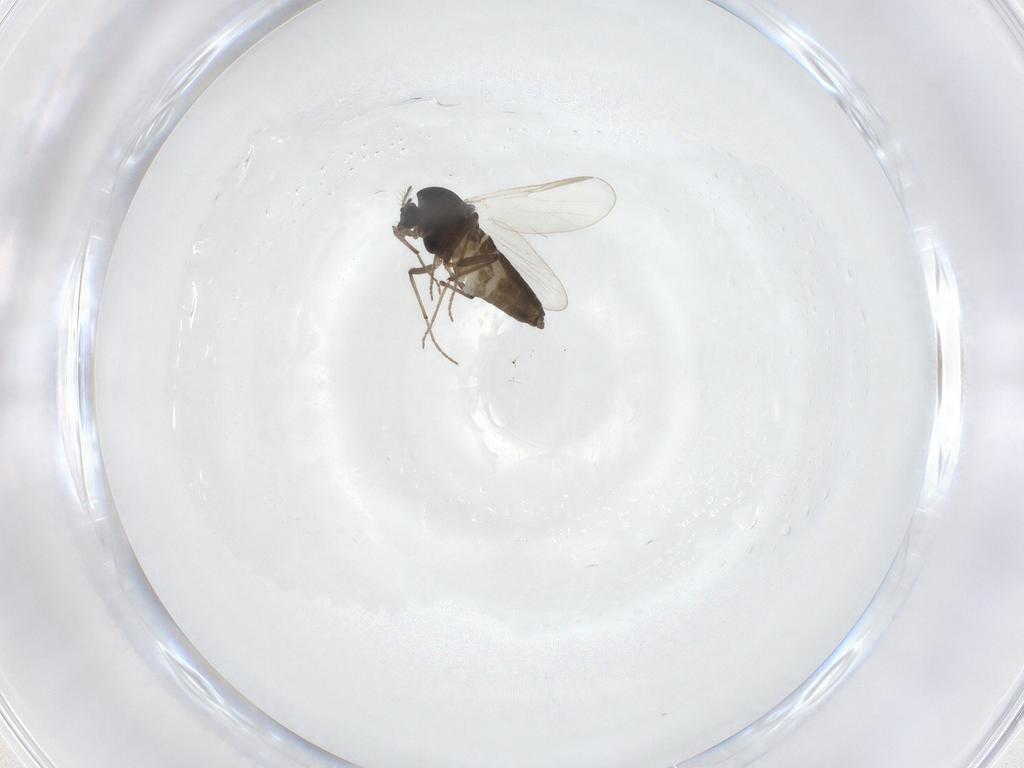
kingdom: Animalia
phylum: Arthropoda
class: Insecta
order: Diptera
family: Chironomidae
